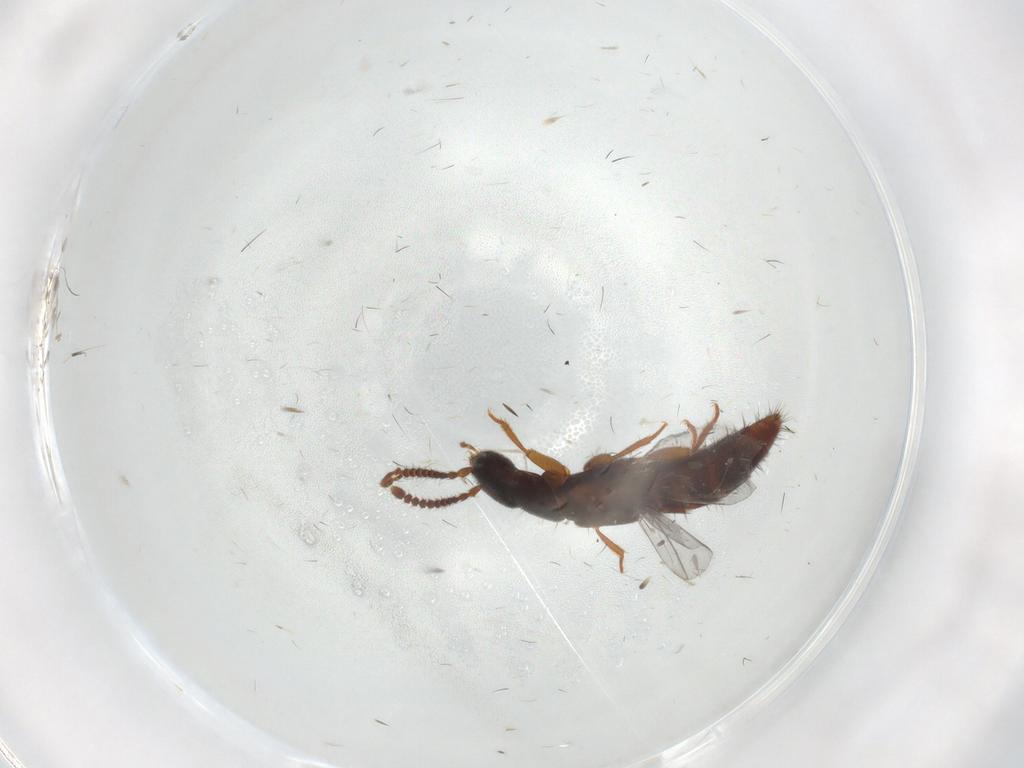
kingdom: Animalia
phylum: Arthropoda
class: Insecta
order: Coleoptera
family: Staphylinidae
